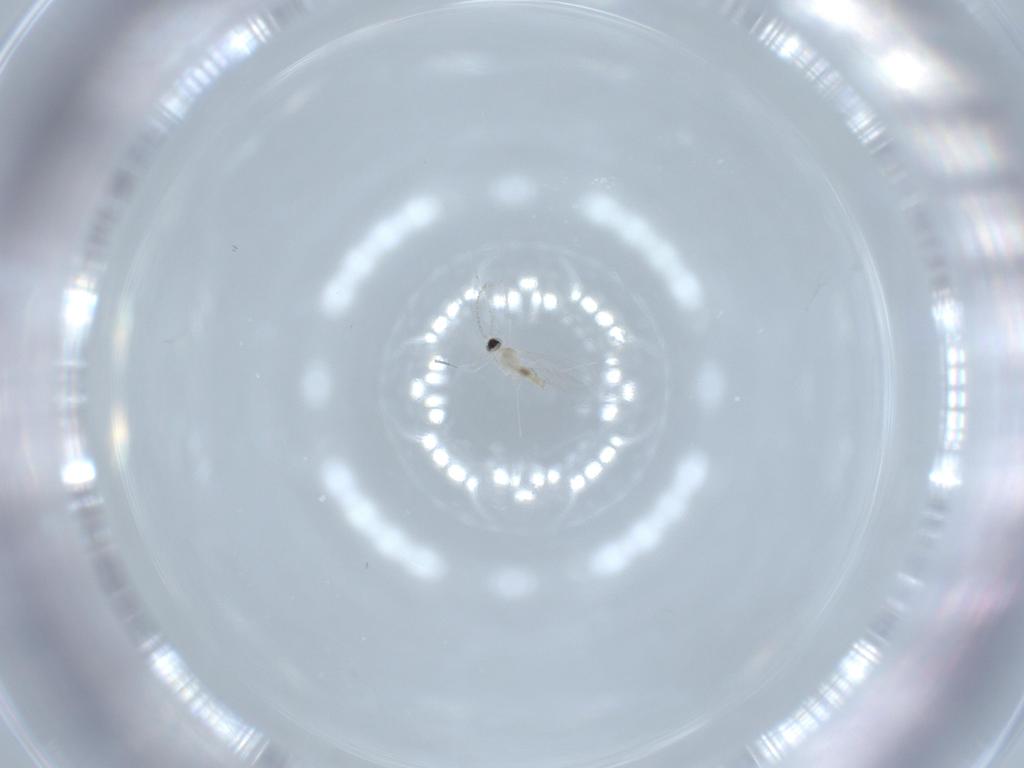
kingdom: Animalia
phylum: Arthropoda
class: Insecta
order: Diptera
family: Cecidomyiidae
